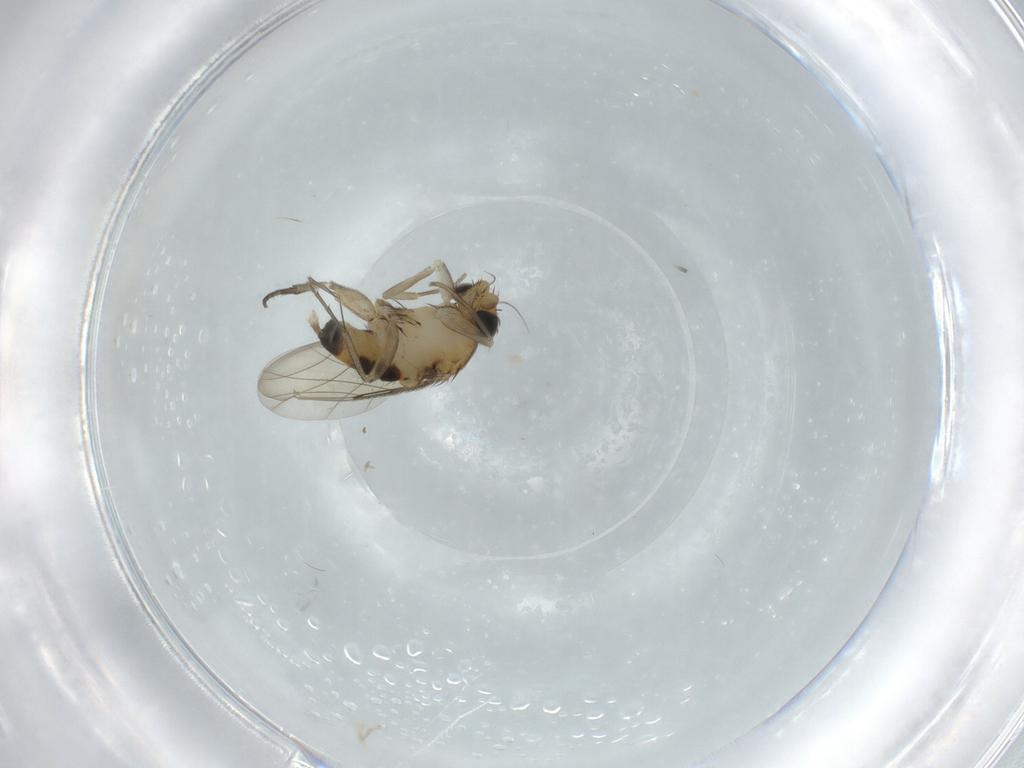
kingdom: Animalia
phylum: Arthropoda
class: Insecta
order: Diptera
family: Phoridae
